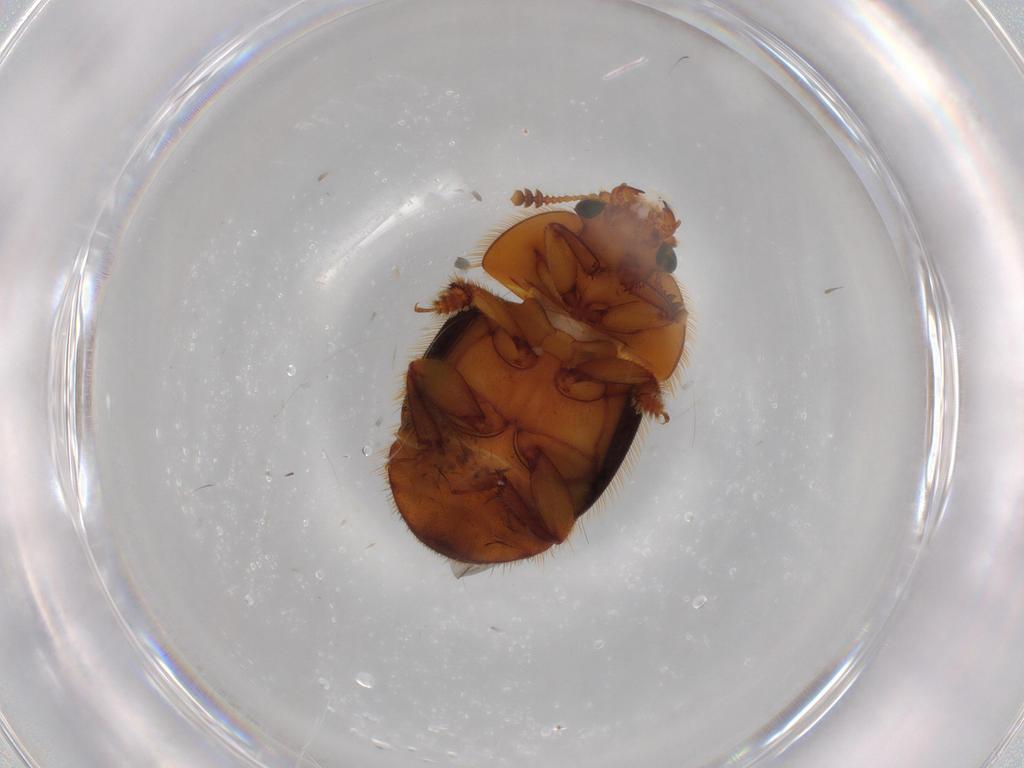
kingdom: Animalia
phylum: Arthropoda
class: Insecta
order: Coleoptera
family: Nitidulidae
